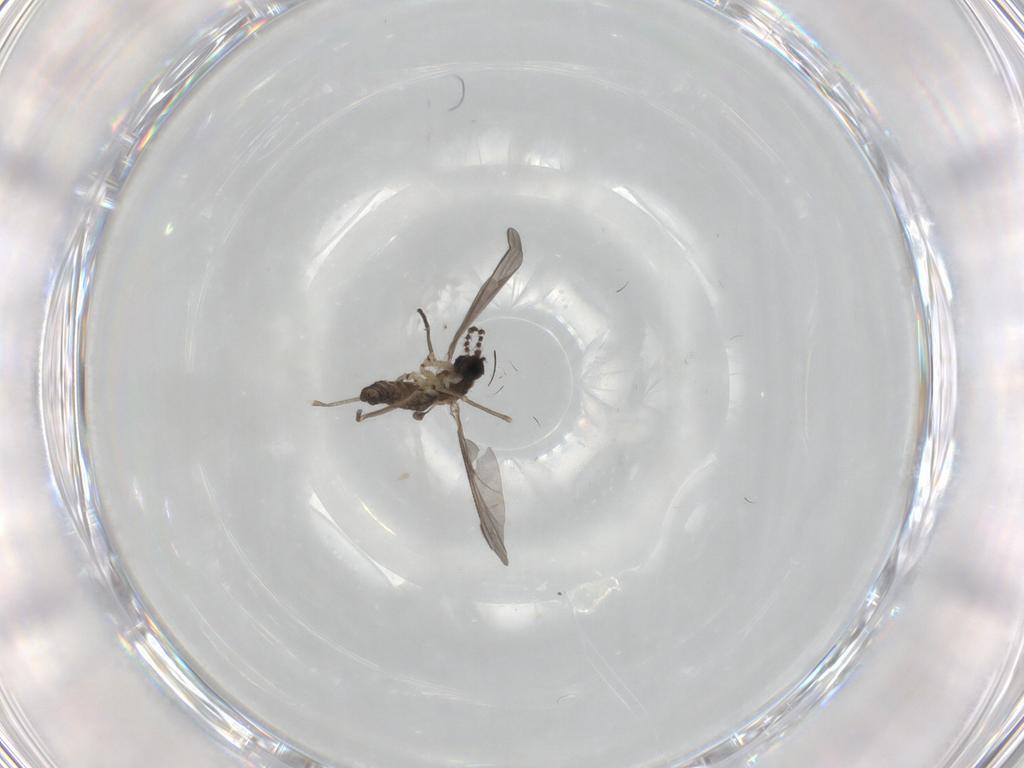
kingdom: Animalia
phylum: Arthropoda
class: Insecta
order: Diptera
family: Sciaridae
